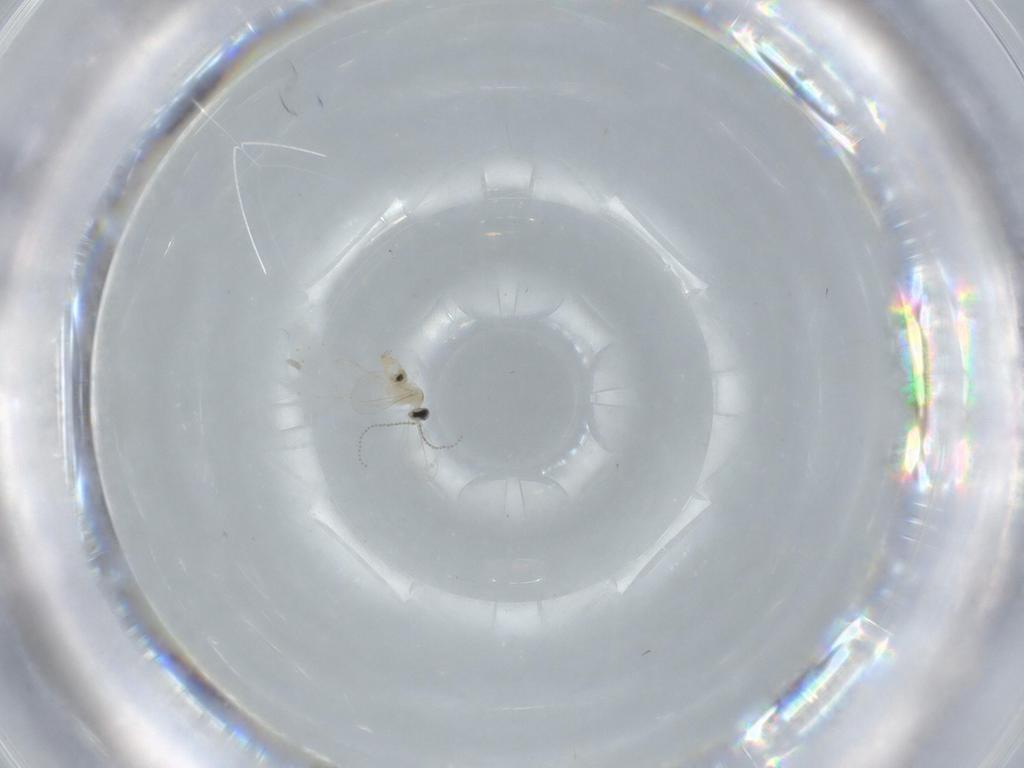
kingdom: Animalia
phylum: Arthropoda
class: Insecta
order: Diptera
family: Cecidomyiidae
